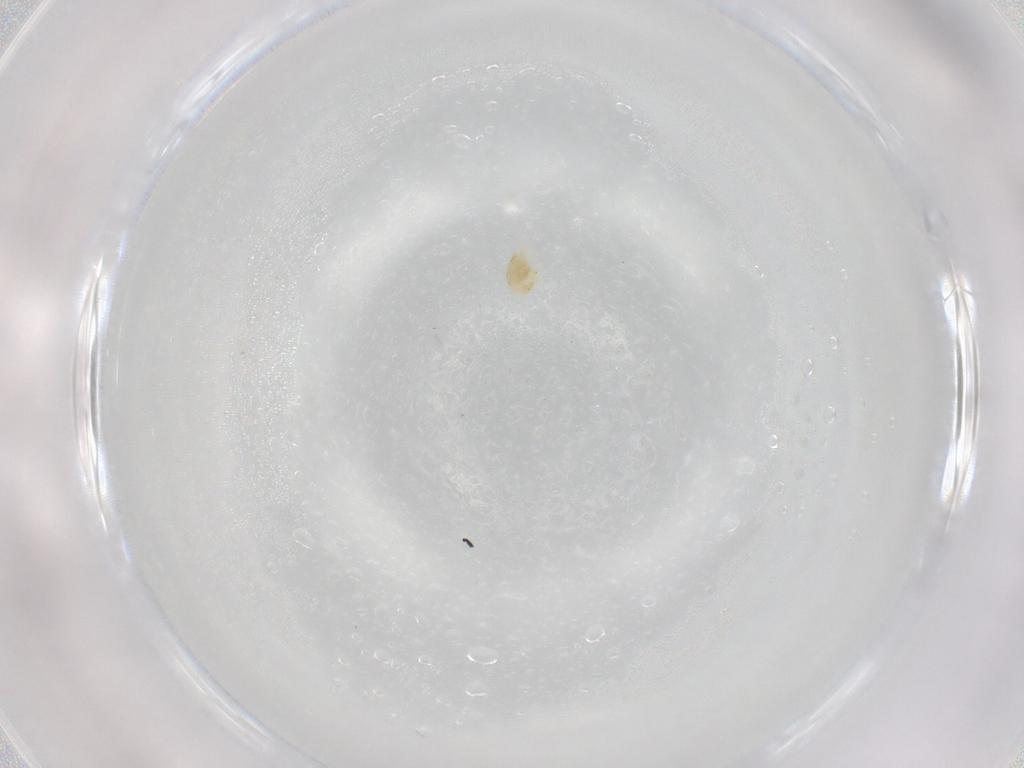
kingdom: Animalia
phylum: Arthropoda
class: Arachnida
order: Trombidiformes
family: Eupodidae
